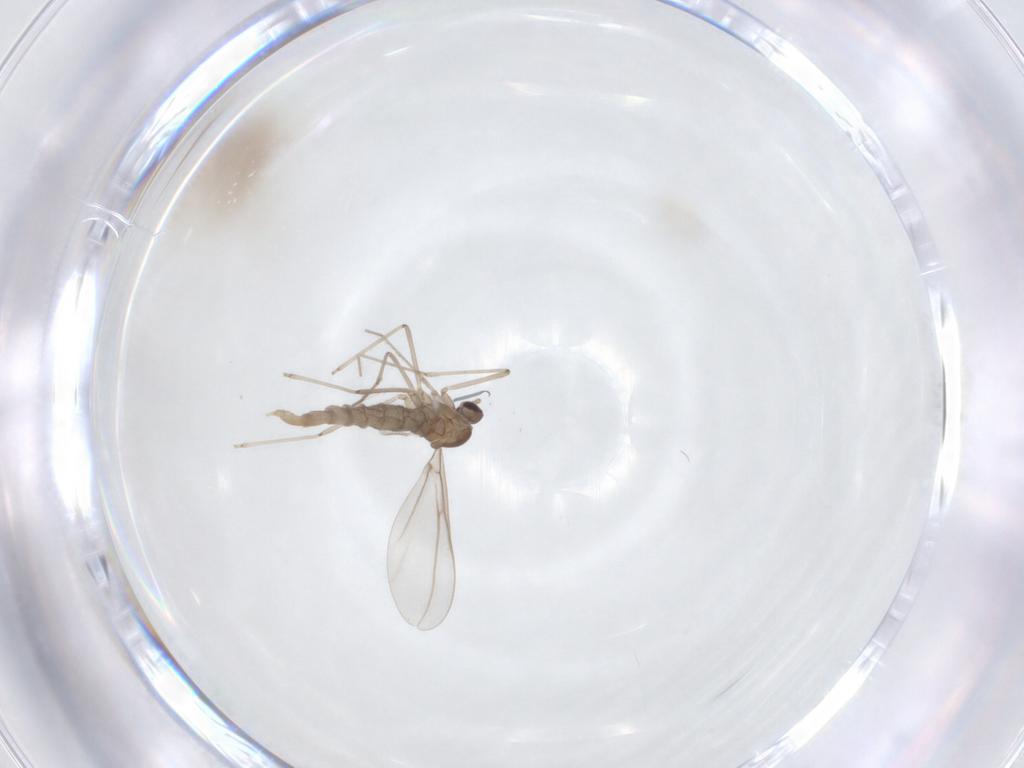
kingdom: Animalia
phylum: Arthropoda
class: Insecta
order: Diptera
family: Cecidomyiidae
